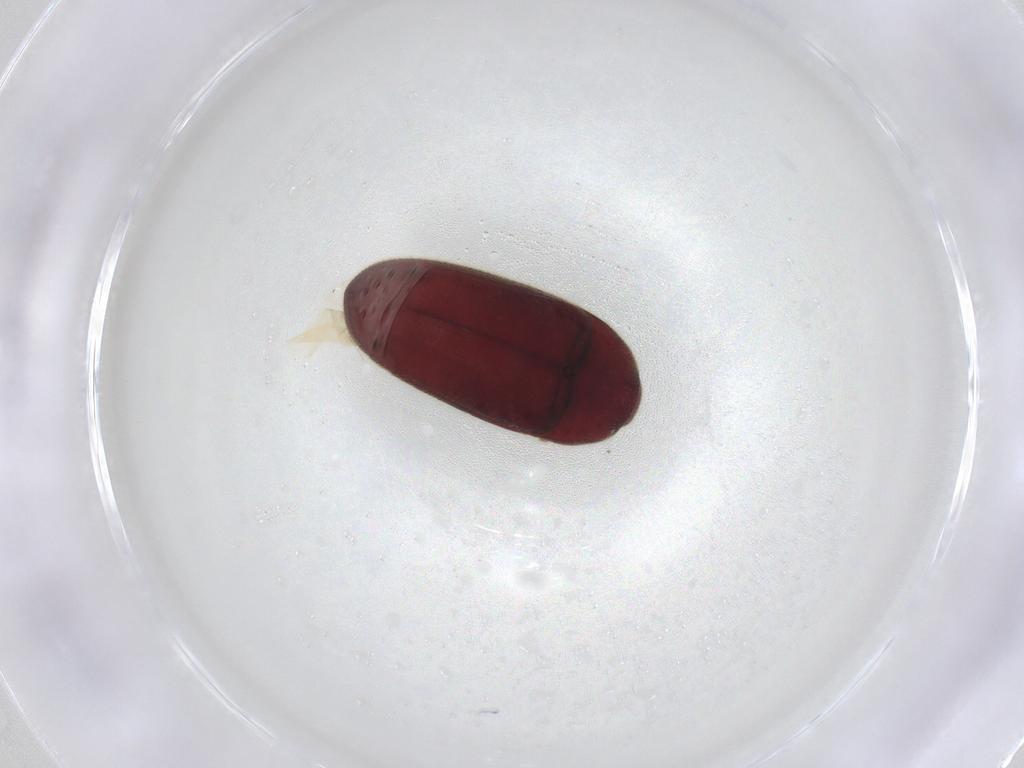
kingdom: Animalia
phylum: Arthropoda
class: Insecta
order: Coleoptera
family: Throscidae
